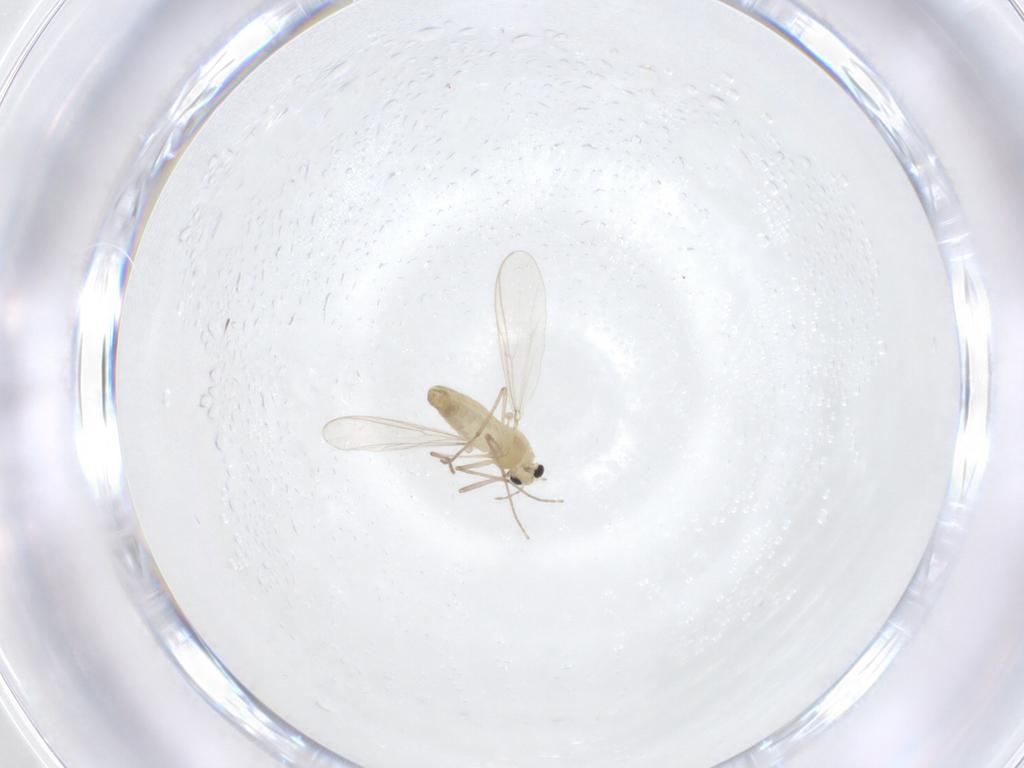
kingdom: Animalia
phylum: Arthropoda
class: Insecta
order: Diptera
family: Chironomidae
